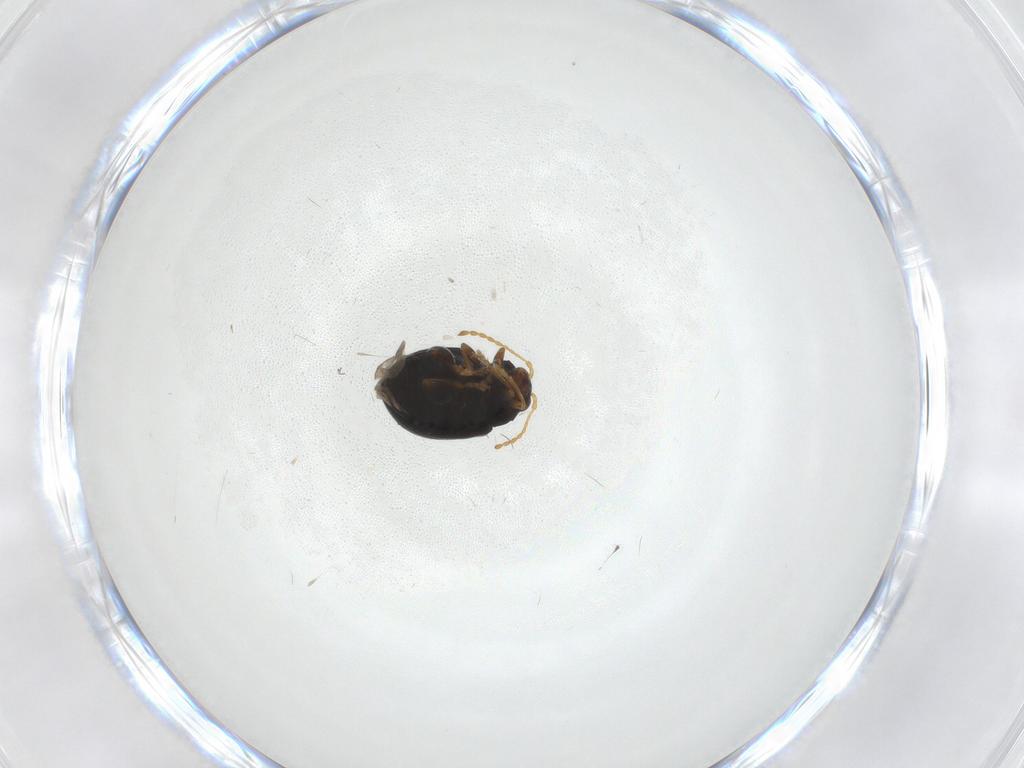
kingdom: Animalia
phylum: Arthropoda
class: Insecta
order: Coleoptera
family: Chrysomelidae
